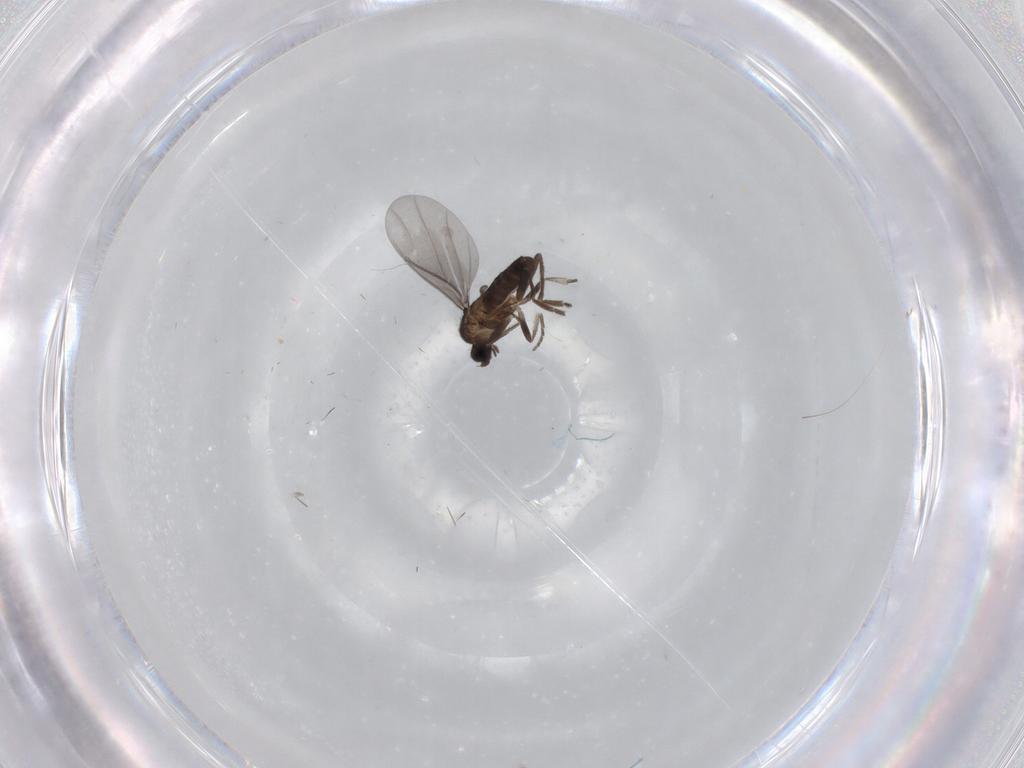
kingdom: Animalia
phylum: Arthropoda
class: Insecta
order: Diptera
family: Phoridae
